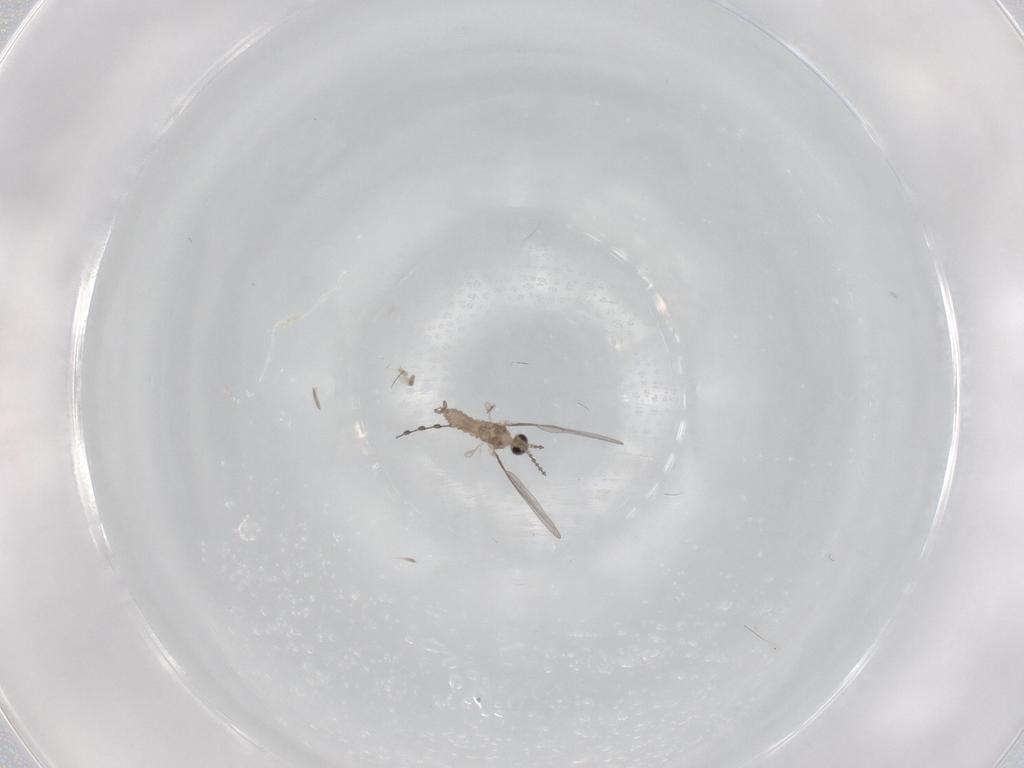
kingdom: Animalia
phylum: Arthropoda
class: Insecta
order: Diptera
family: Cecidomyiidae
